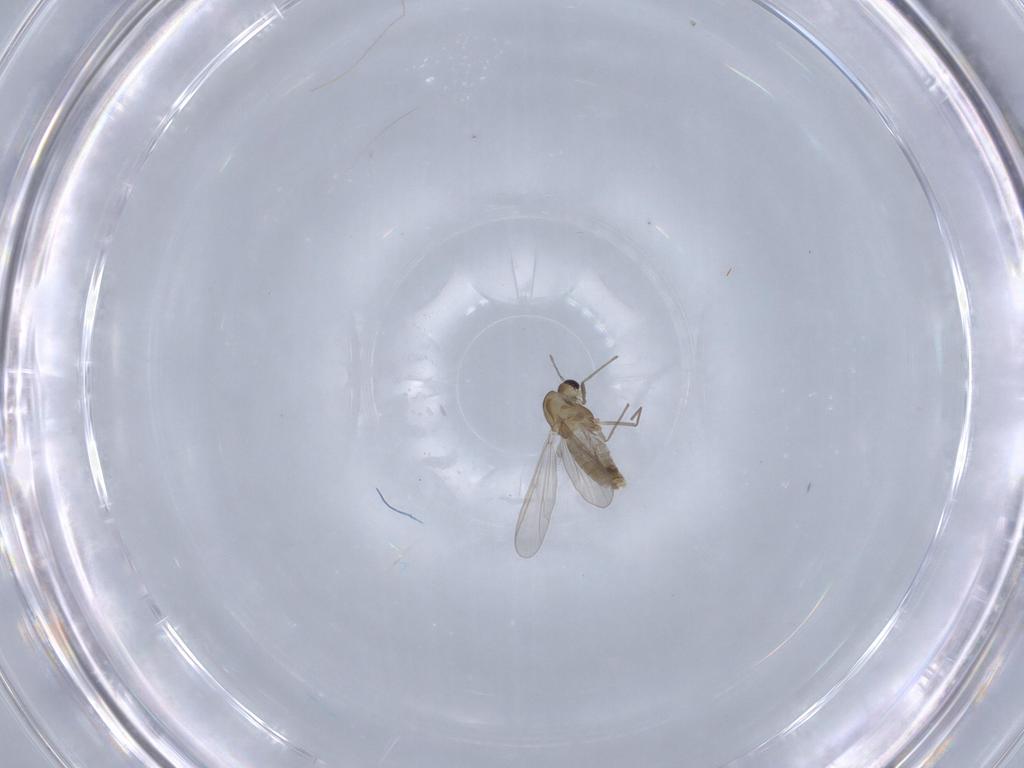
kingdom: Animalia
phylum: Arthropoda
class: Insecta
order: Diptera
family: Chironomidae
